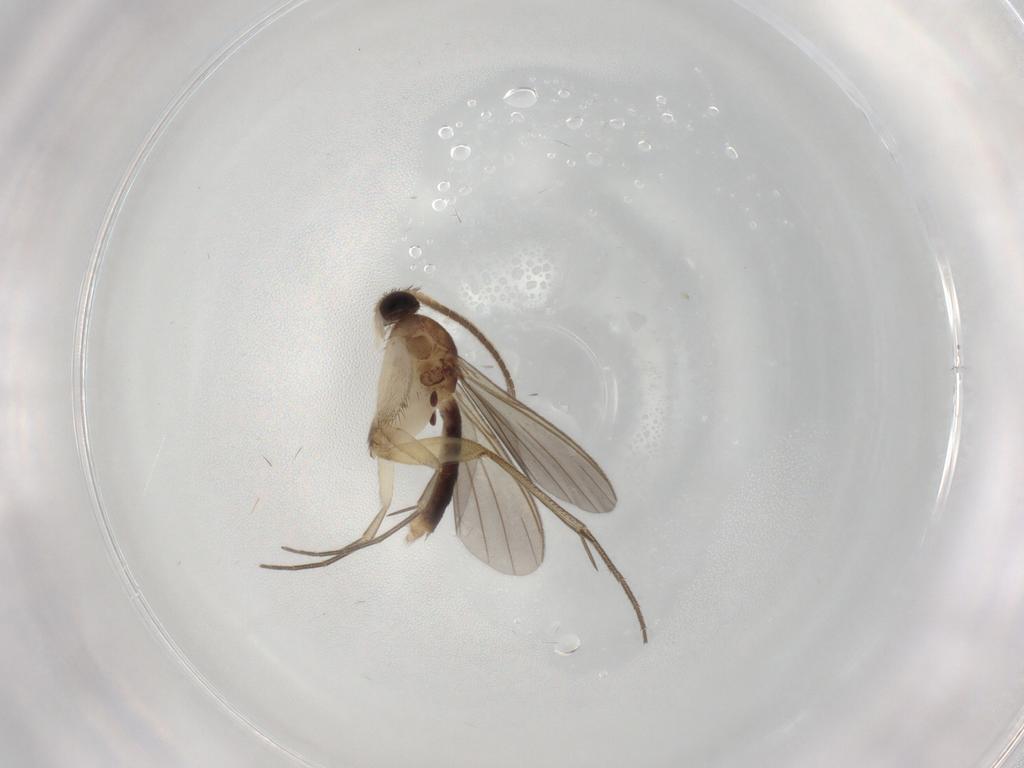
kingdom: Animalia
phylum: Arthropoda
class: Insecta
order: Diptera
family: Mycetophilidae
